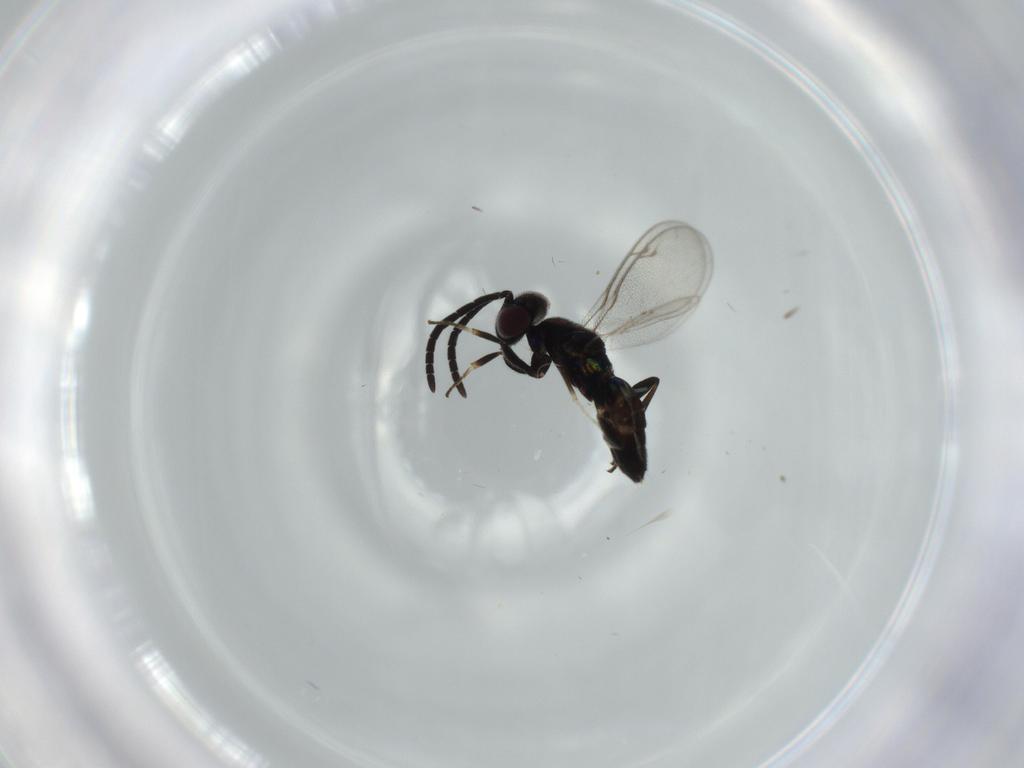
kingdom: Animalia
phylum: Arthropoda
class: Insecta
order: Hymenoptera
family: Eupelmidae
